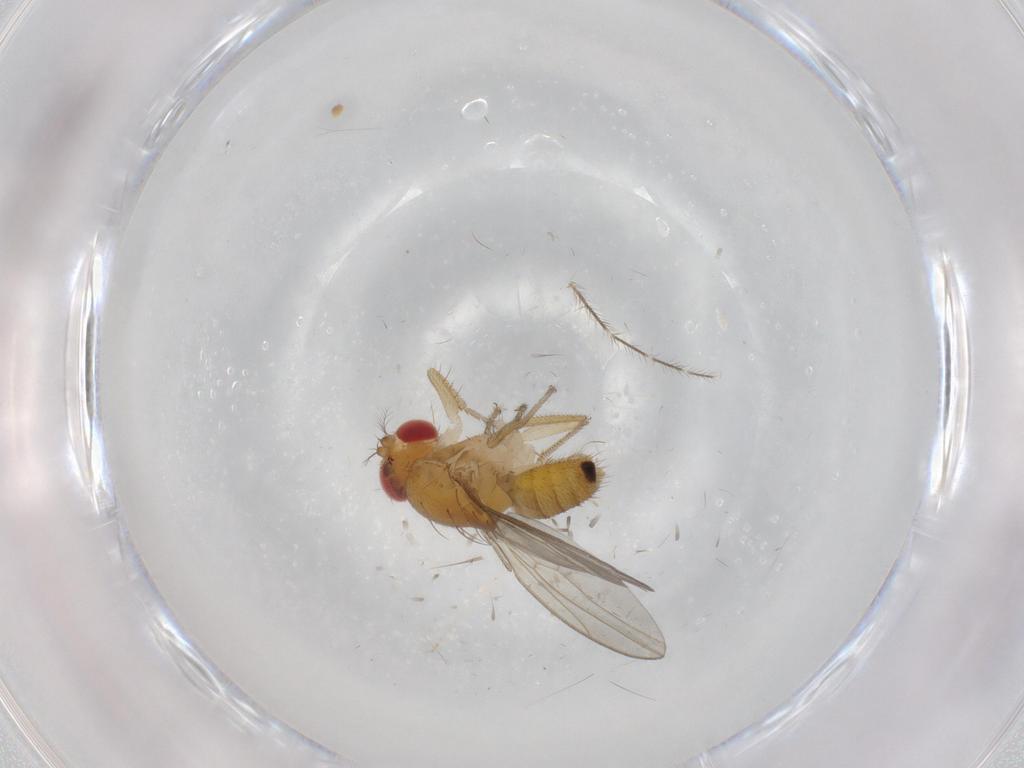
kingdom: Animalia
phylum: Arthropoda
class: Insecta
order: Diptera
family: Drosophilidae
